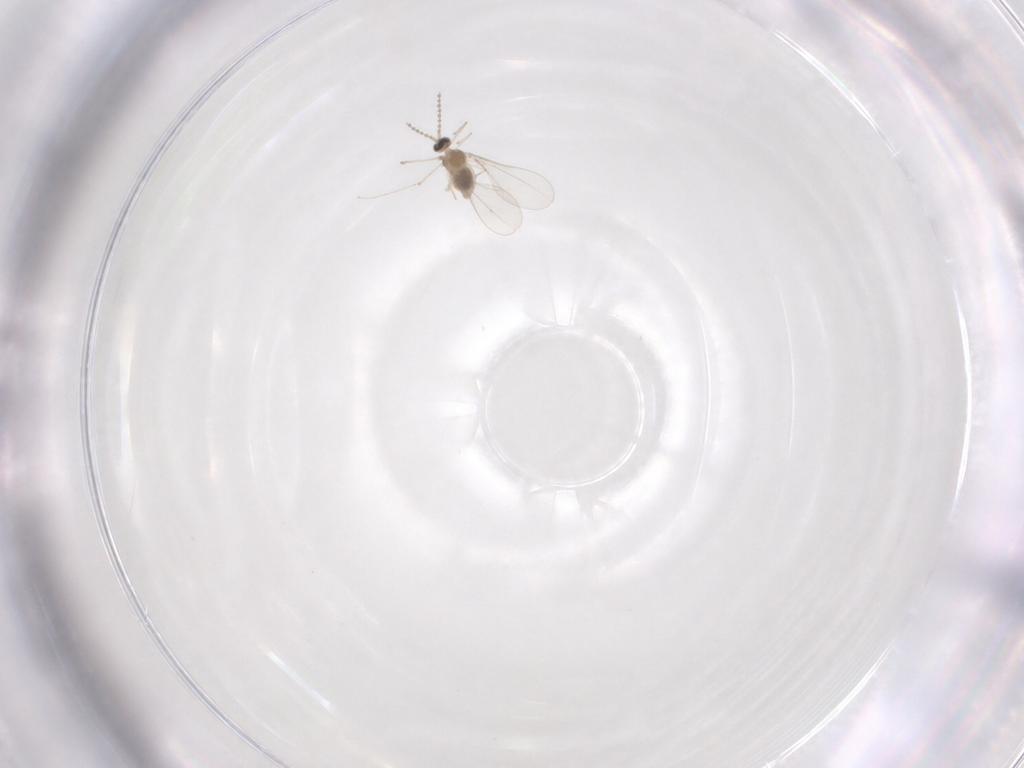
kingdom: Animalia
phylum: Arthropoda
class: Insecta
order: Diptera
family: Cecidomyiidae
